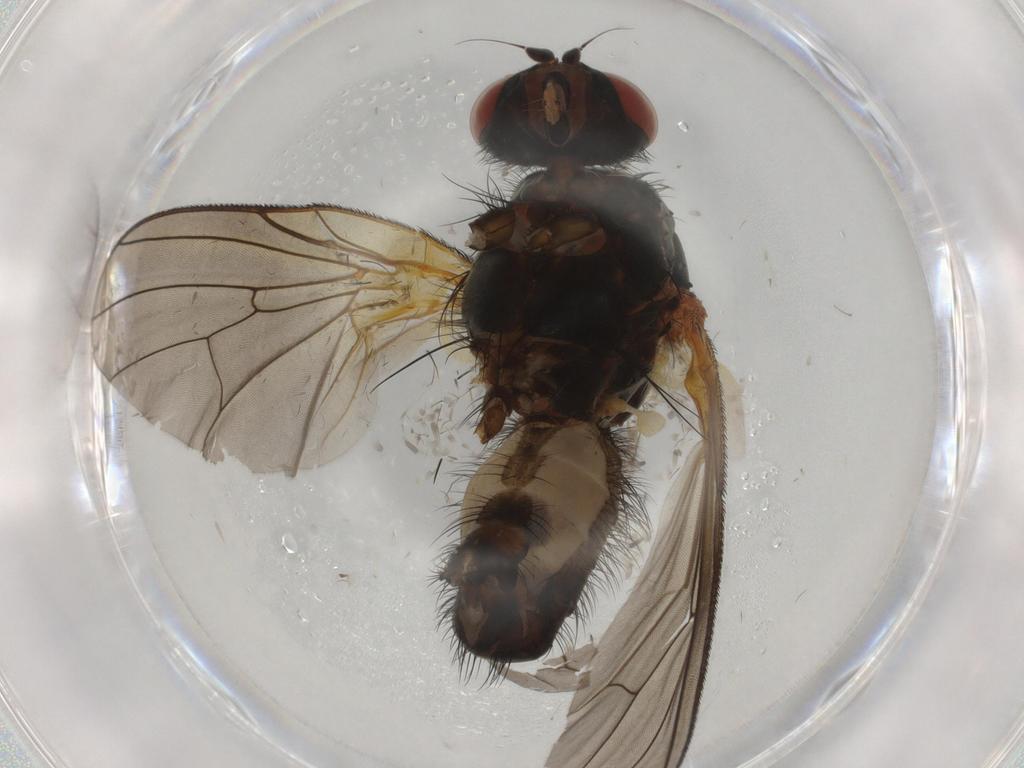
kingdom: Animalia
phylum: Arthropoda
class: Insecta
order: Diptera
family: Anthomyiidae
